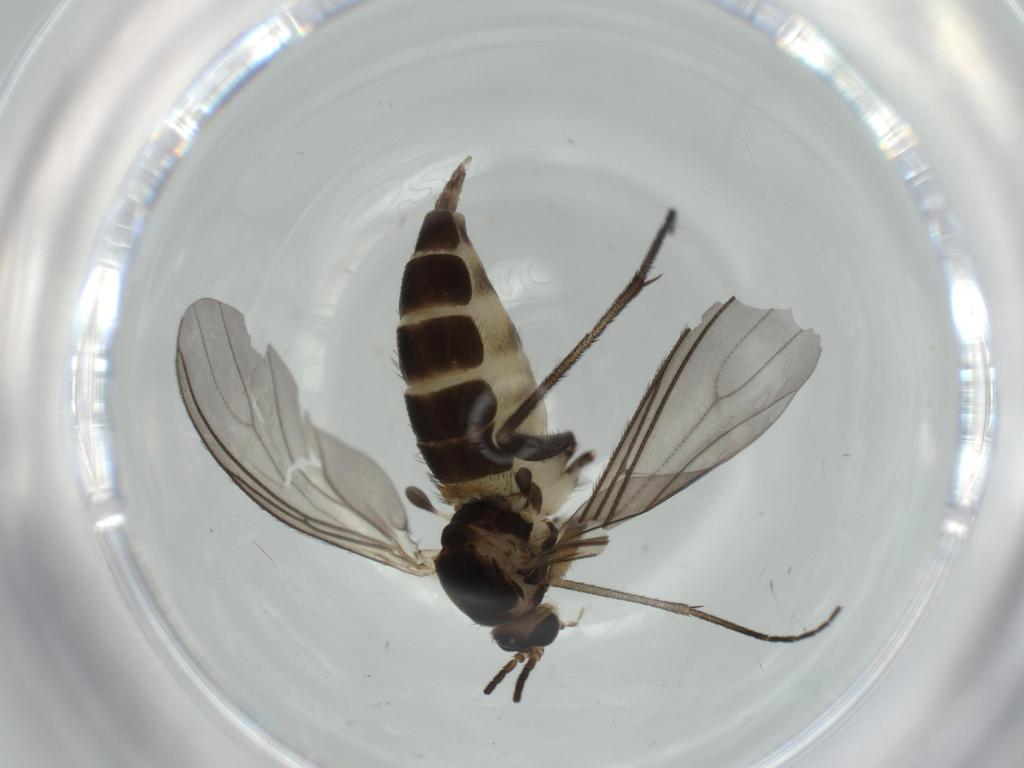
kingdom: Animalia
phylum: Arthropoda
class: Insecta
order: Diptera
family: Sciaridae
